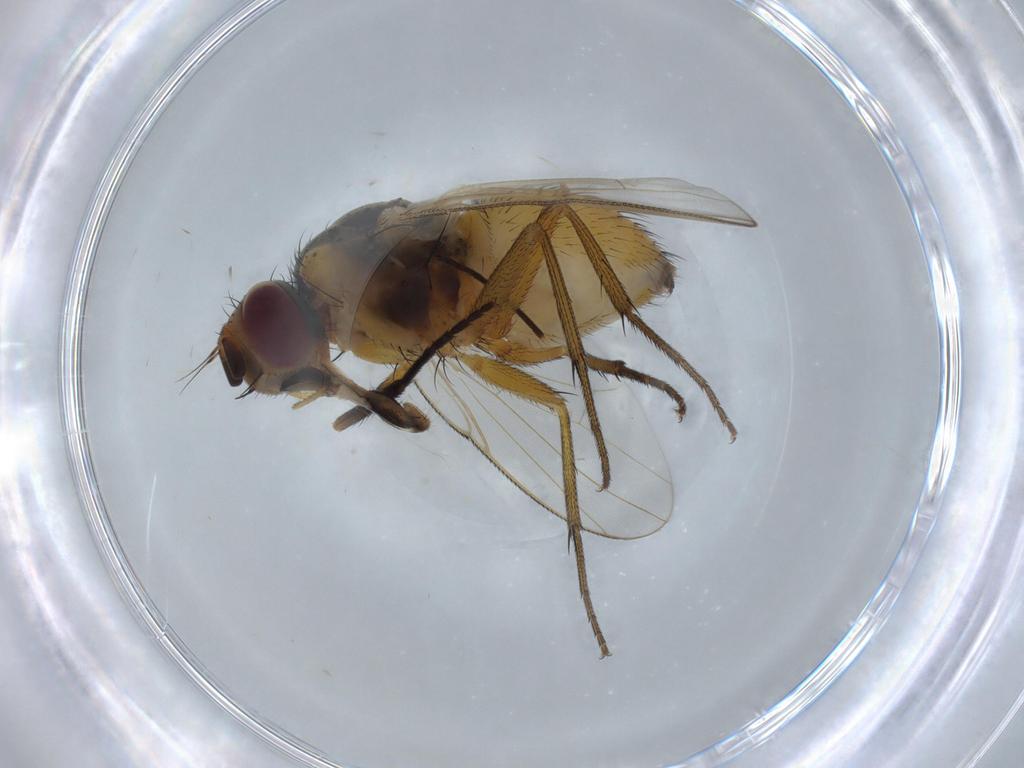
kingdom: Animalia
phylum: Arthropoda
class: Insecta
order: Diptera
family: Muscidae
